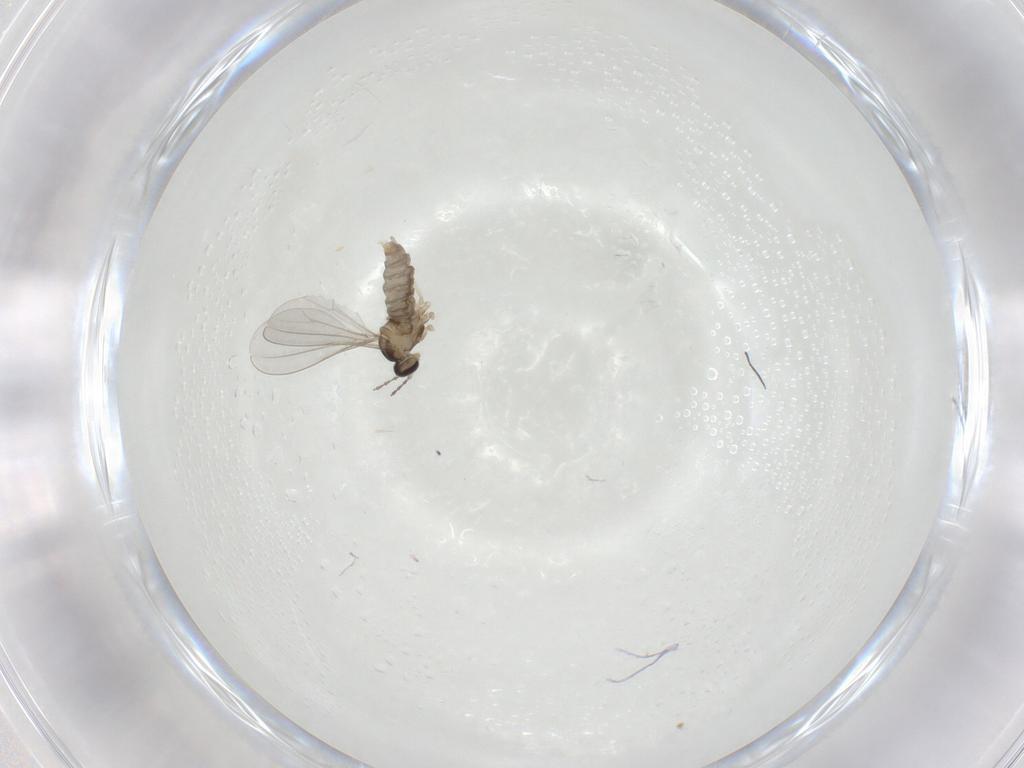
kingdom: Animalia
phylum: Arthropoda
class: Insecta
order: Diptera
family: Cecidomyiidae
